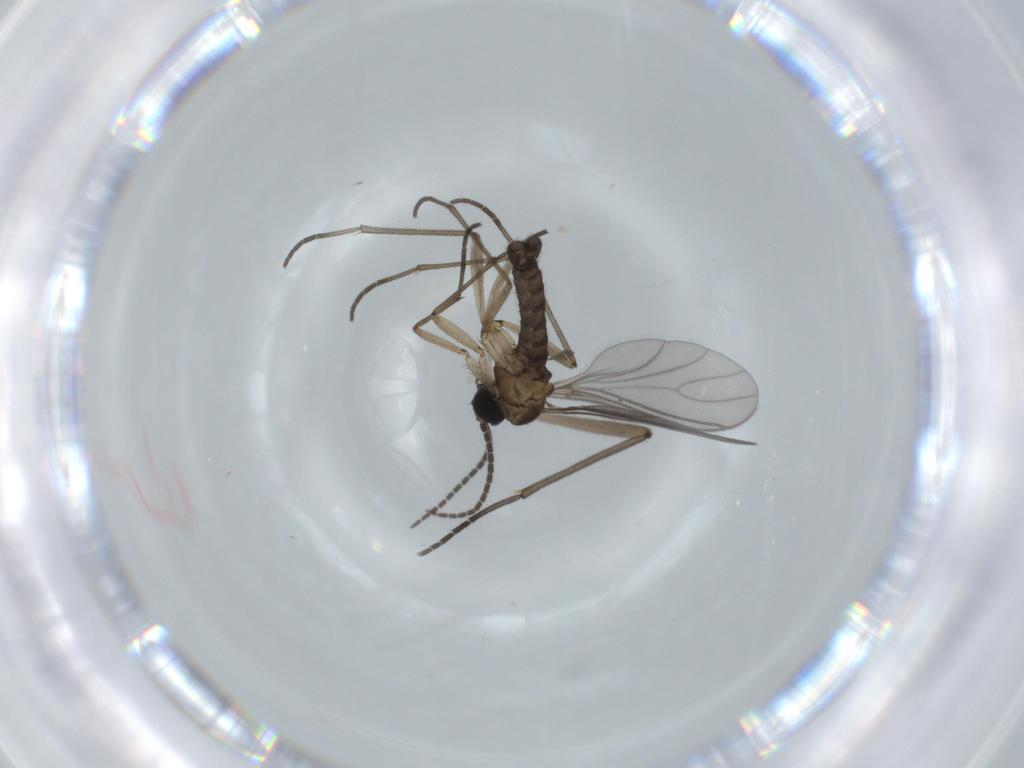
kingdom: Animalia
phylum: Arthropoda
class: Insecta
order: Diptera
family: Sciaridae
